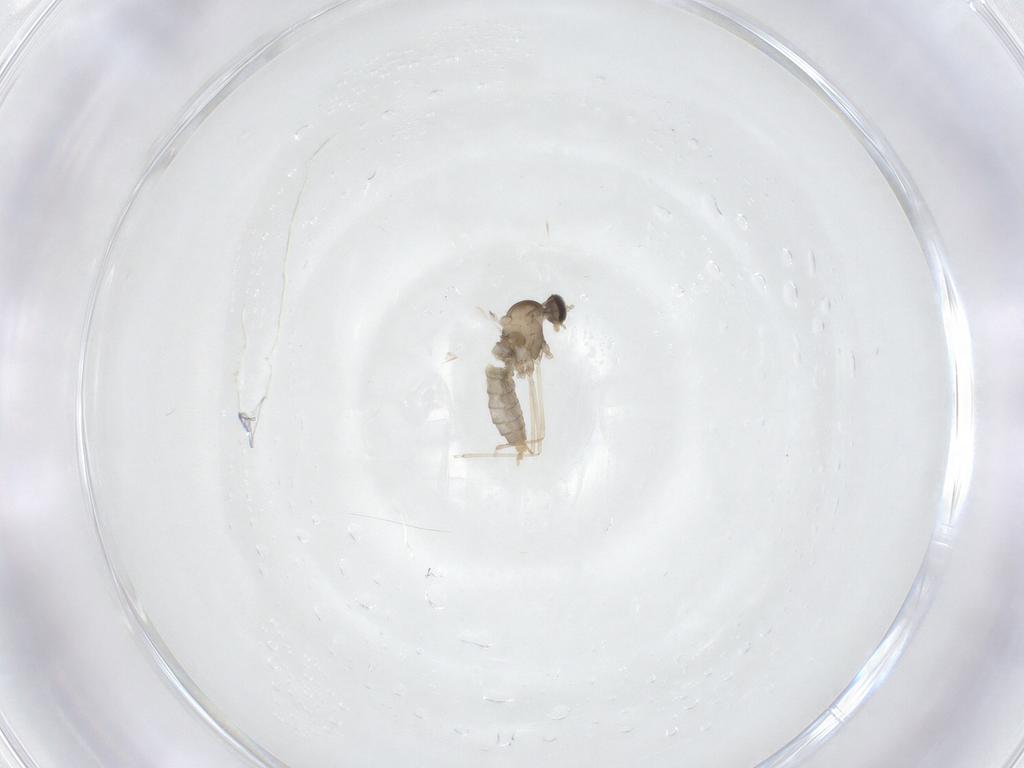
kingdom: Animalia
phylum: Arthropoda
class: Insecta
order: Diptera
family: Cecidomyiidae
